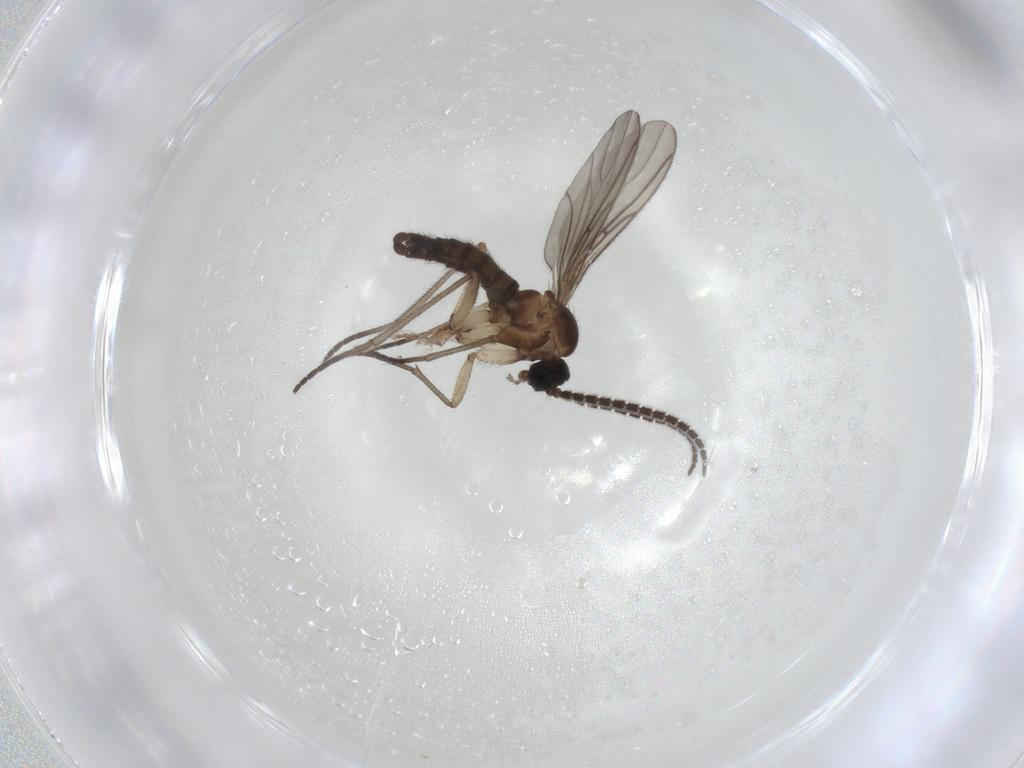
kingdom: Animalia
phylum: Arthropoda
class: Insecta
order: Diptera
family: Sciaridae
